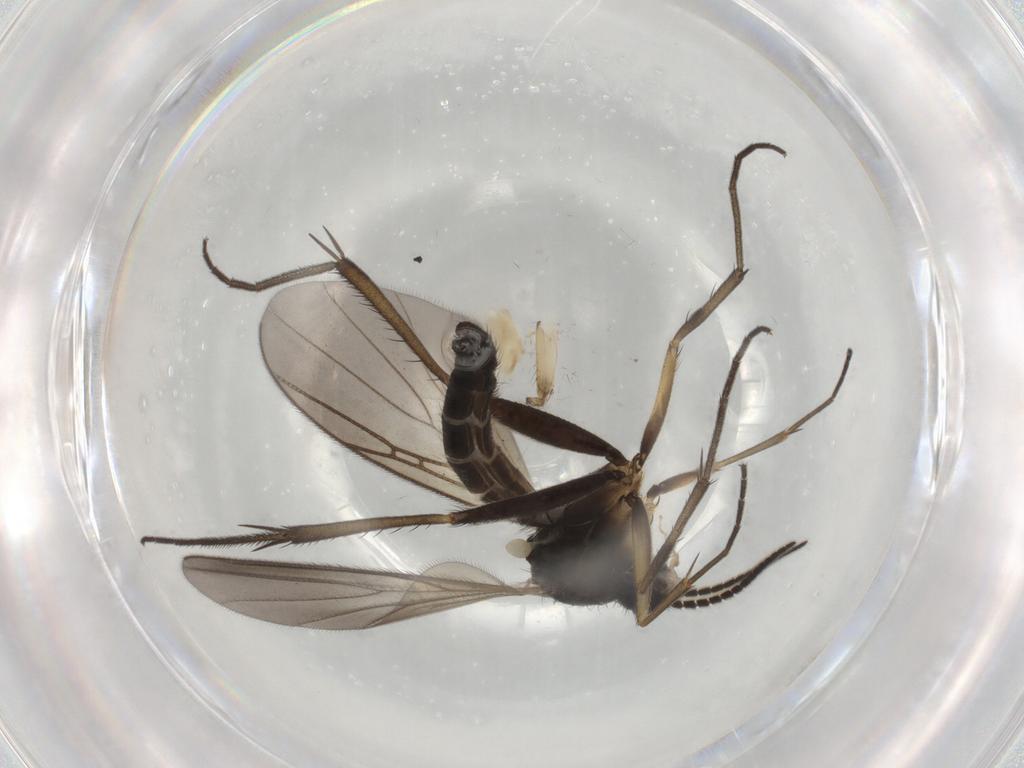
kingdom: Animalia
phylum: Arthropoda
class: Insecta
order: Diptera
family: Sciaridae
